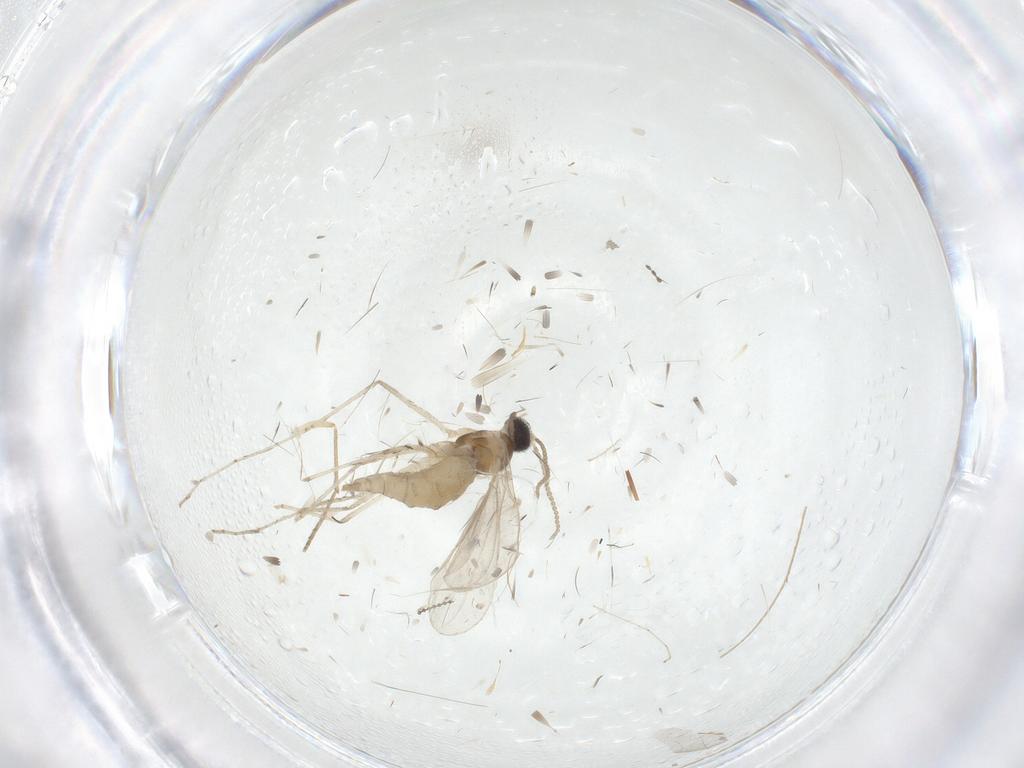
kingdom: Animalia
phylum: Arthropoda
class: Insecta
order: Diptera
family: Cecidomyiidae
